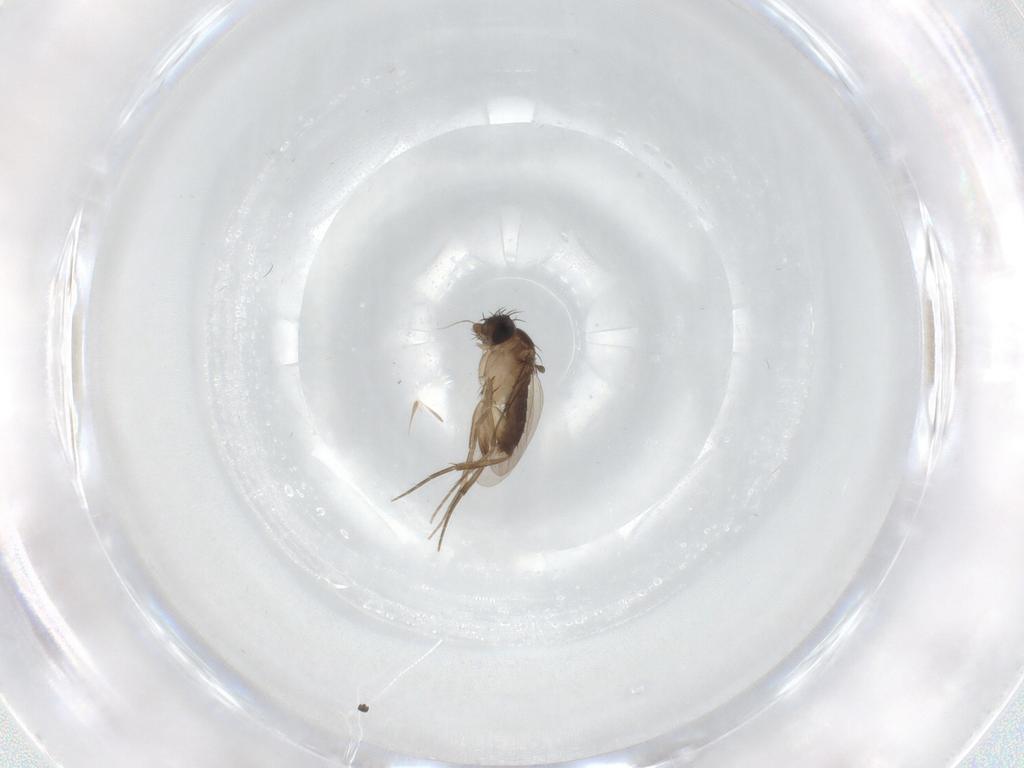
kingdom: Animalia
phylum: Arthropoda
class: Insecta
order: Diptera
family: Phoridae
